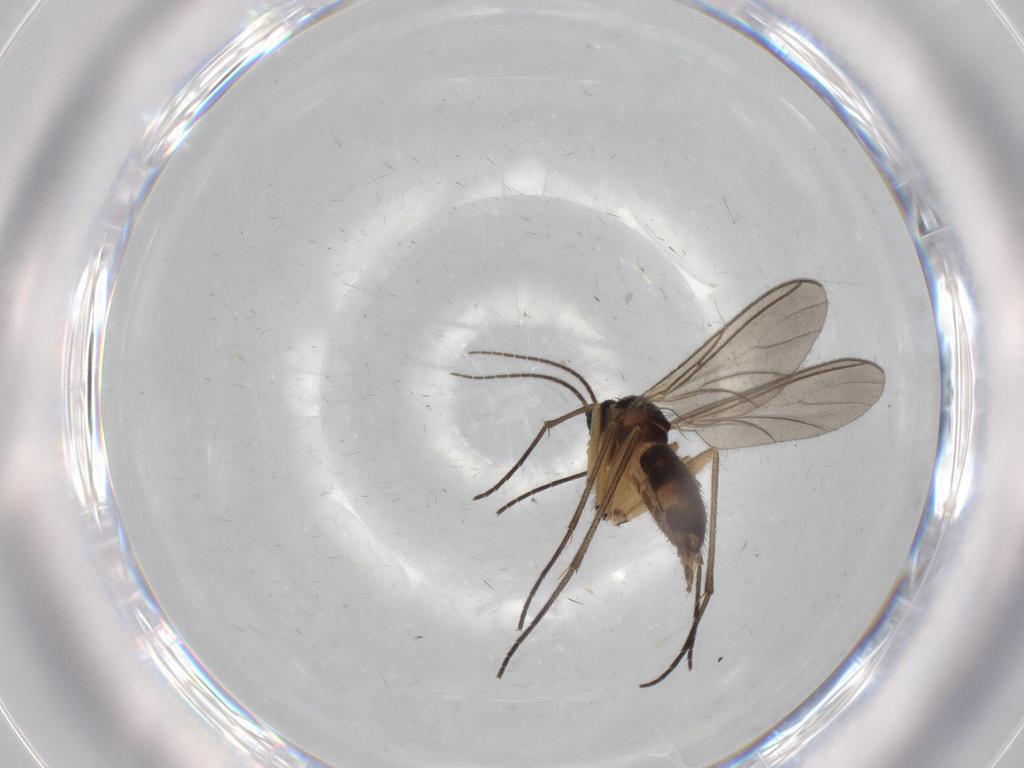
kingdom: Animalia
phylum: Arthropoda
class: Insecta
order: Diptera
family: Sciaridae
